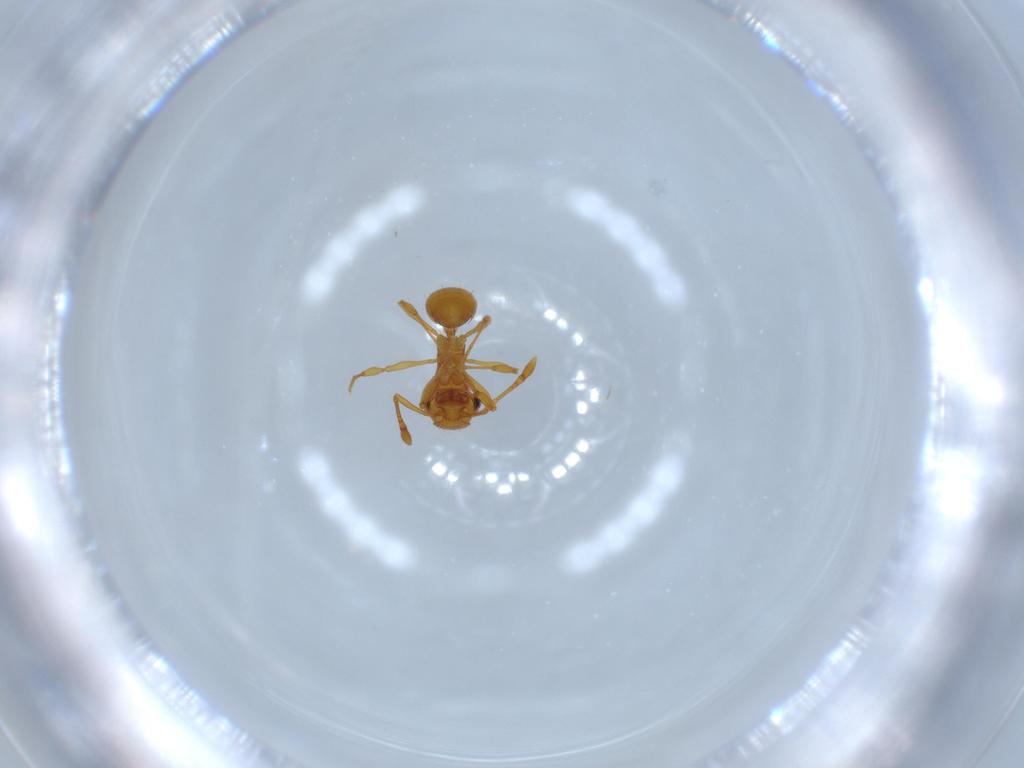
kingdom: Animalia
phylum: Arthropoda
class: Insecta
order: Hymenoptera
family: Formicidae
